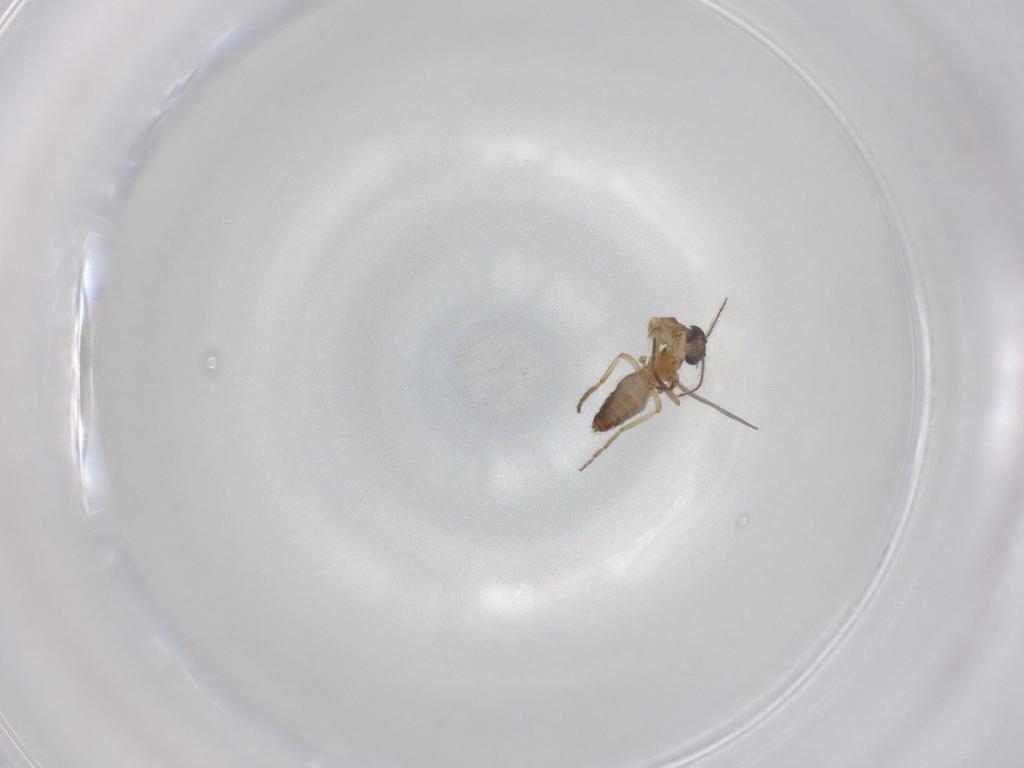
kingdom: Animalia
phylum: Arthropoda
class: Insecta
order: Diptera
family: Ceratopogonidae
